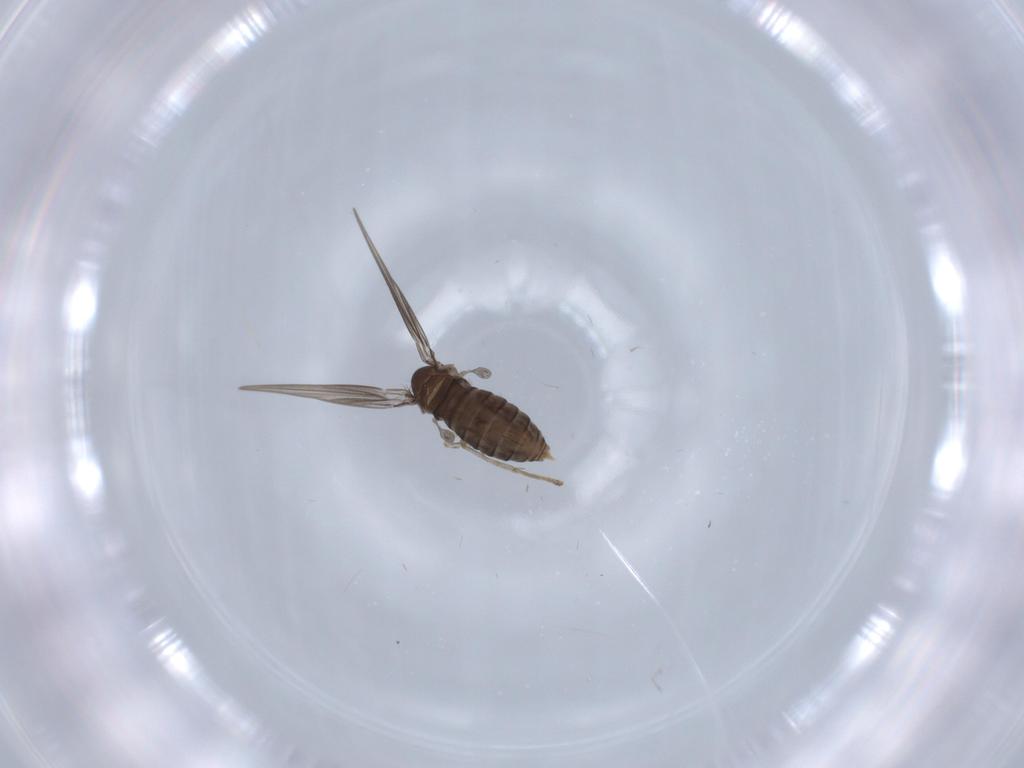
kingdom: Animalia
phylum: Arthropoda
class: Insecta
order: Diptera
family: Psychodidae
